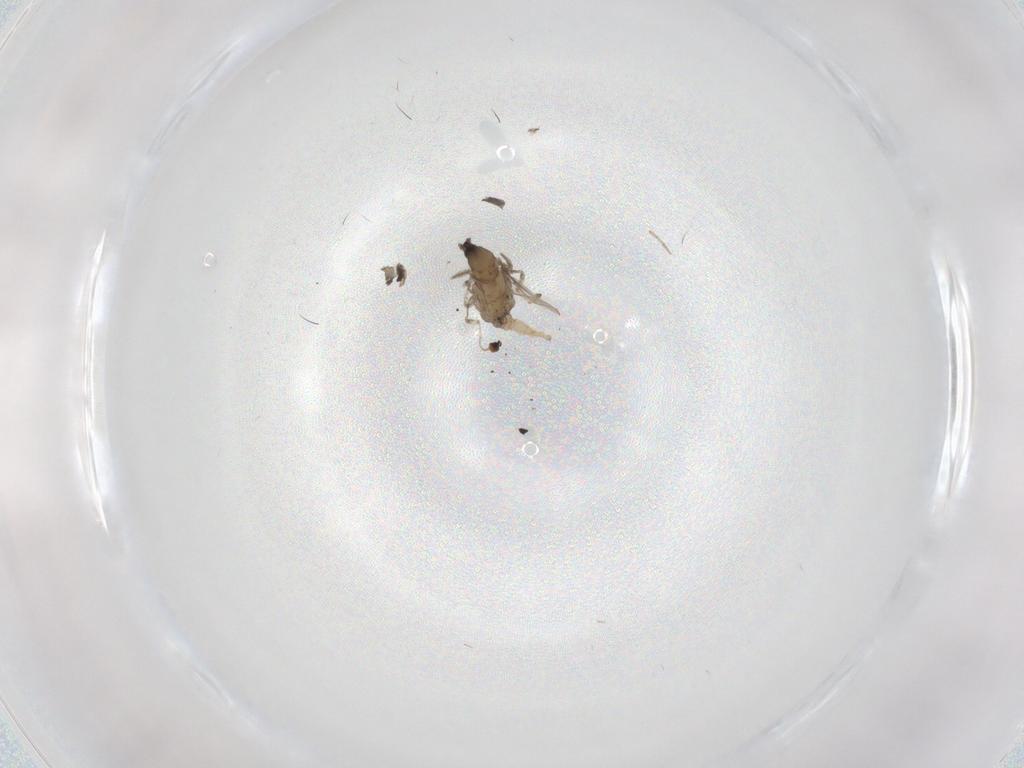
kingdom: Animalia
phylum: Arthropoda
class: Insecta
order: Diptera
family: Cecidomyiidae
